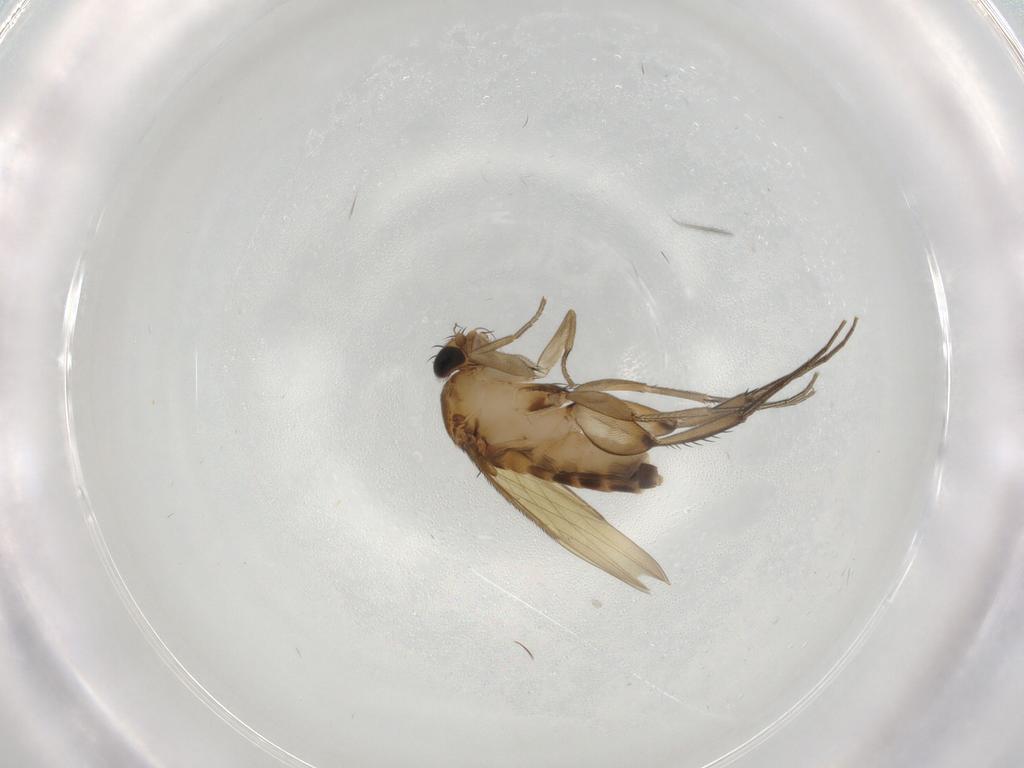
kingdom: Animalia
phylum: Arthropoda
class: Insecta
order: Diptera
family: Phoridae
